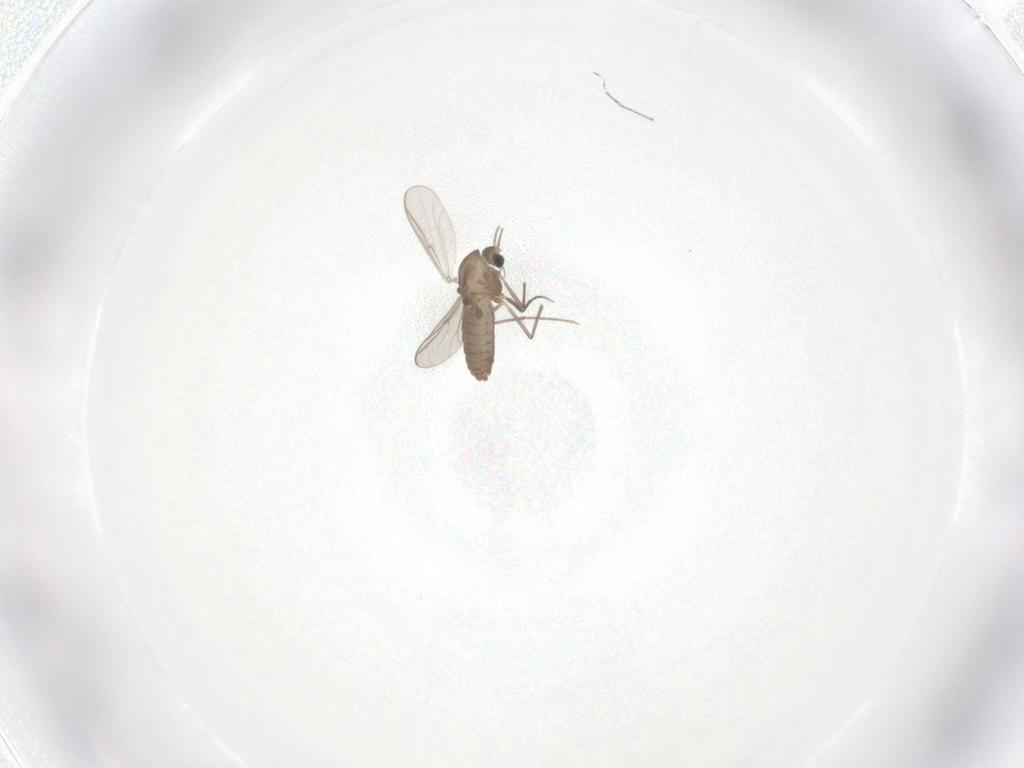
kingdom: Animalia
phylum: Arthropoda
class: Insecta
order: Diptera
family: Chironomidae
